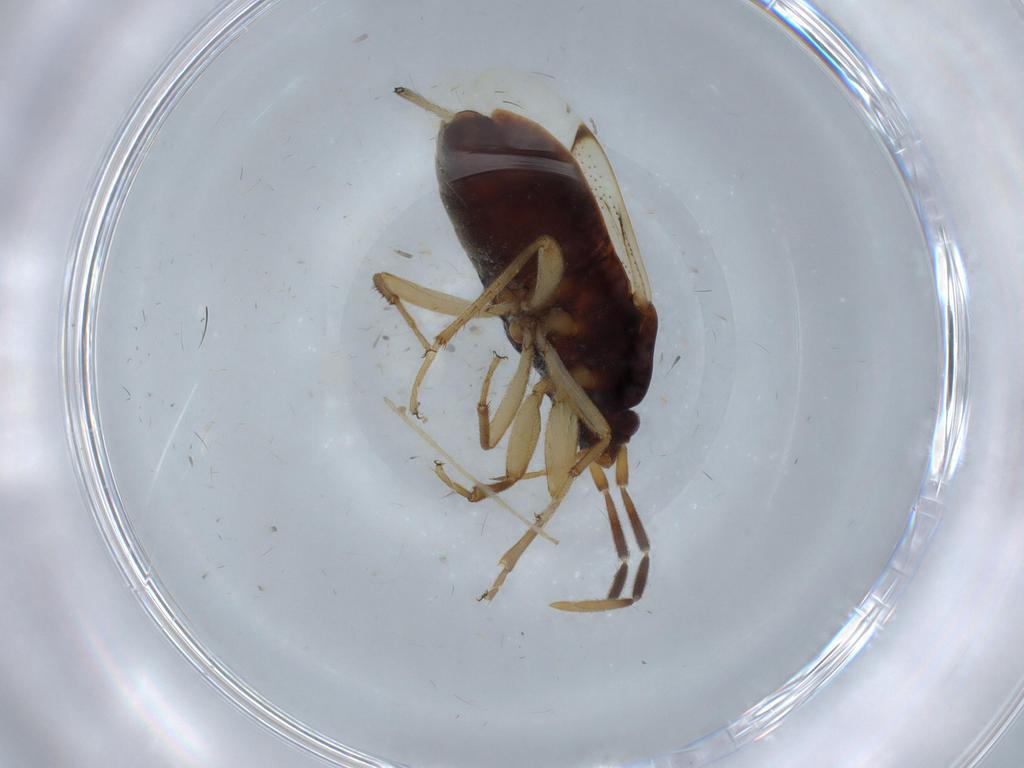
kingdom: Animalia
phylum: Arthropoda
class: Insecta
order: Hemiptera
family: Rhyparochromidae
